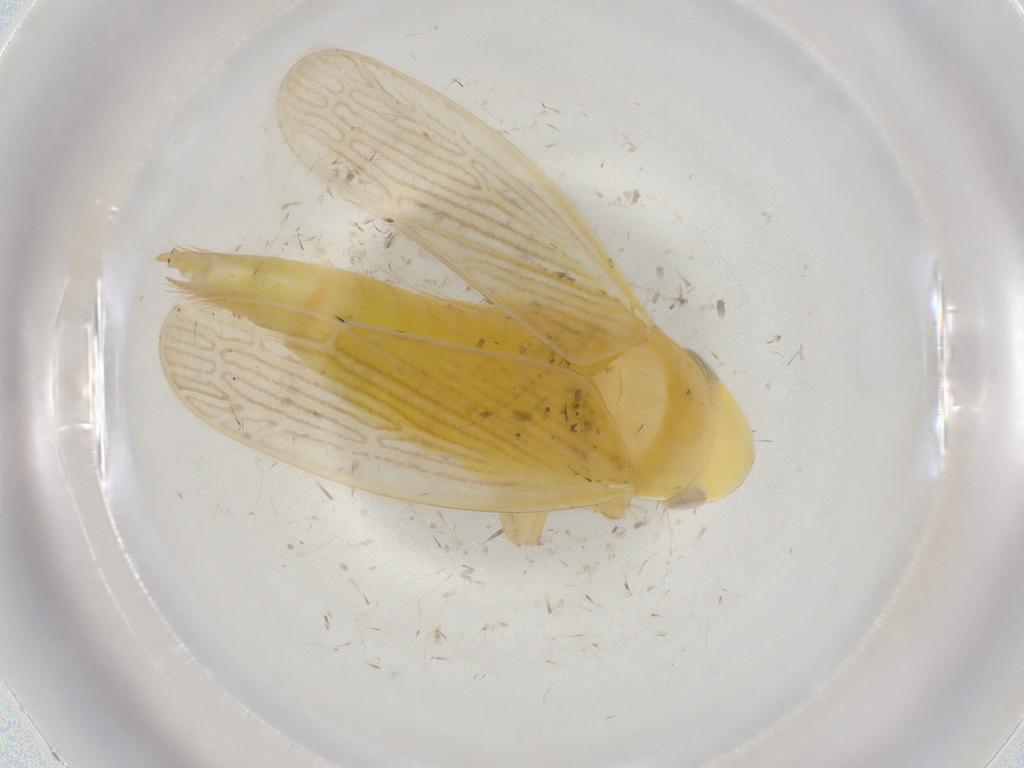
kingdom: Animalia
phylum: Arthropoda
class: Insecta
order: Hemiptera
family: Cicadellidae
